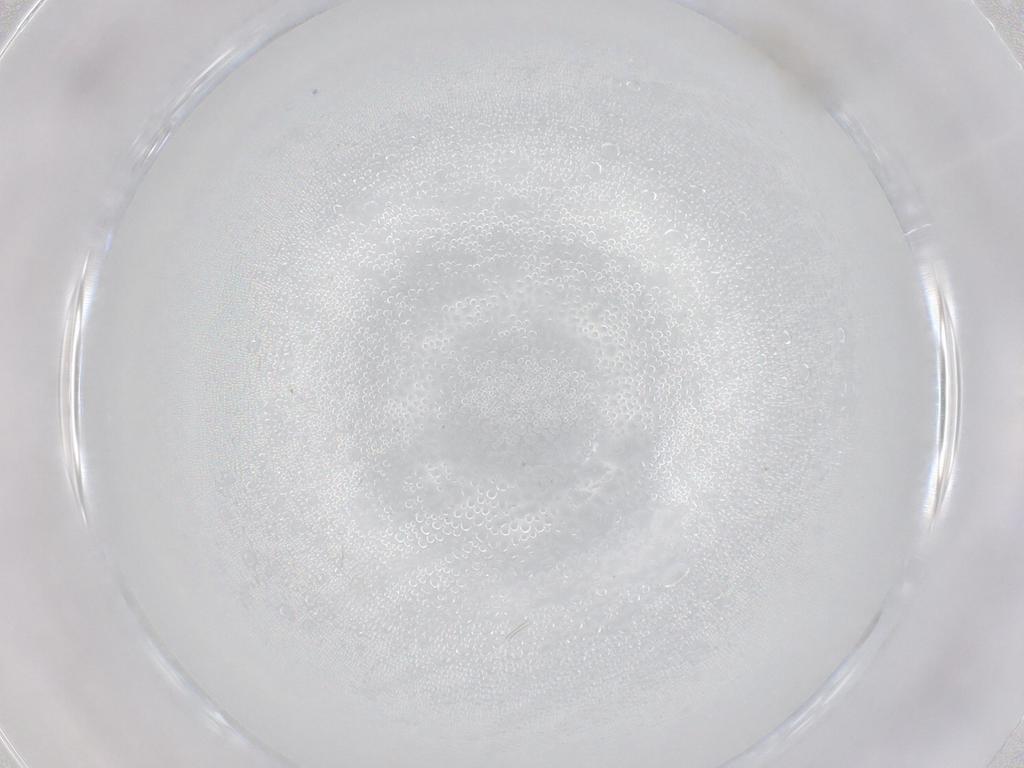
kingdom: Animalia
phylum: Arthropoda
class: Insecta
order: Diptera
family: Cecidomyiidae
